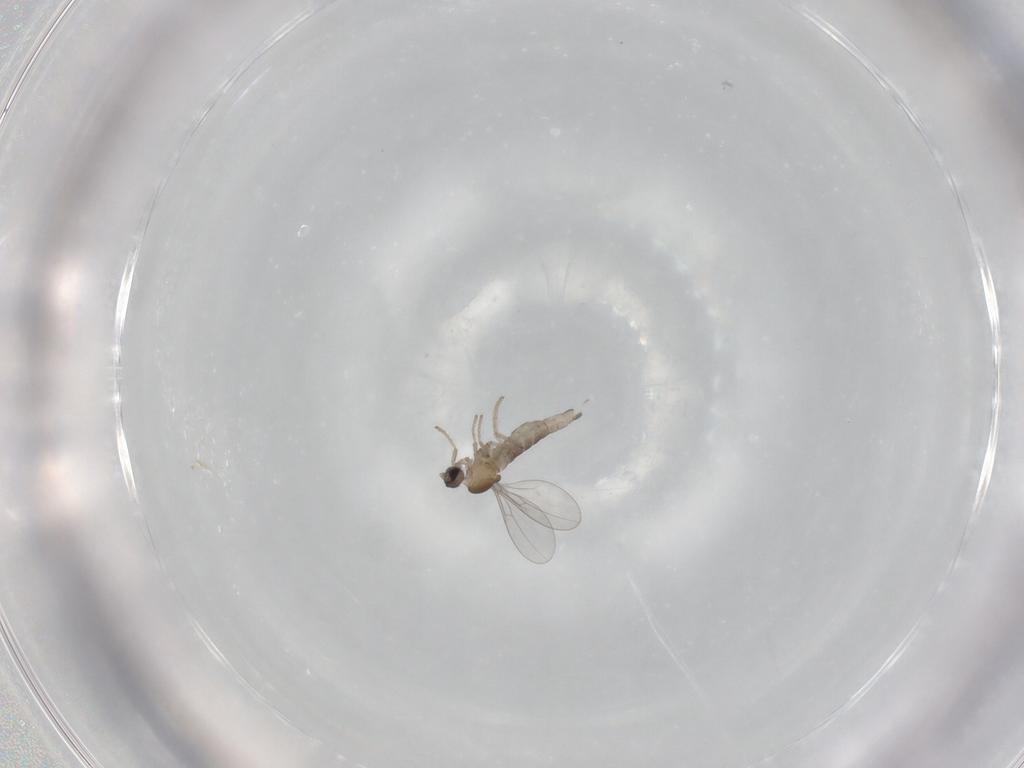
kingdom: Animalia
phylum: Arthropoda
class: Insecta
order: Diptera
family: Cecidomyiidae
